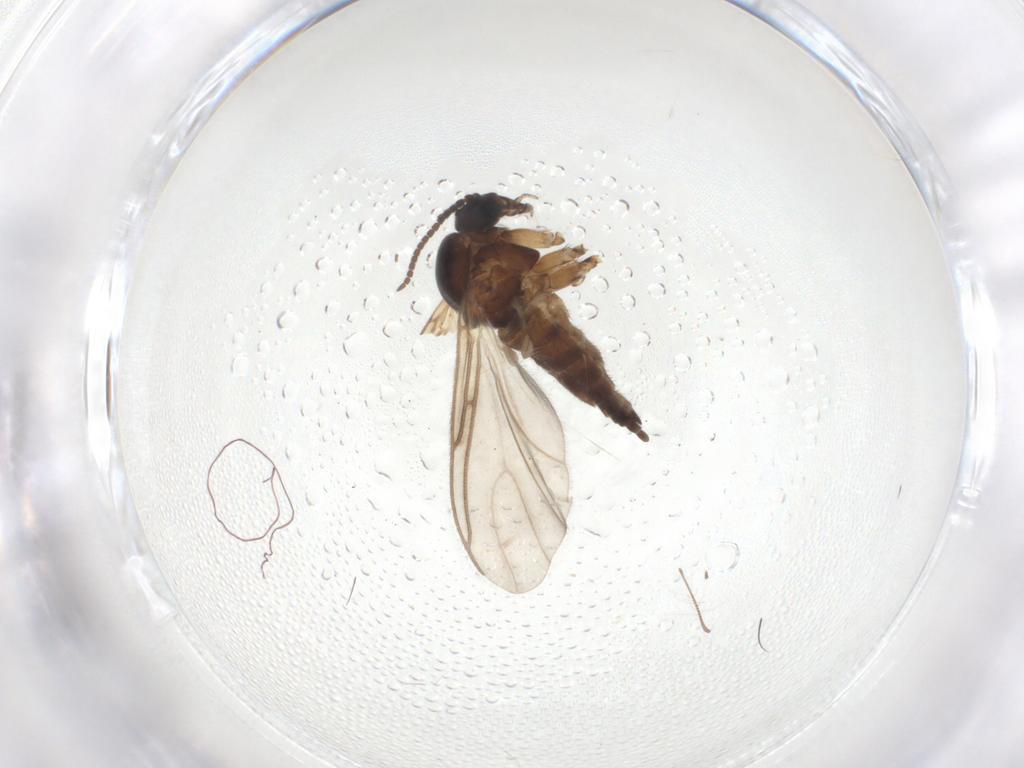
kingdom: Animalia
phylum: Arthropoda
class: Insecta
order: Diptera
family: Sciaridae
